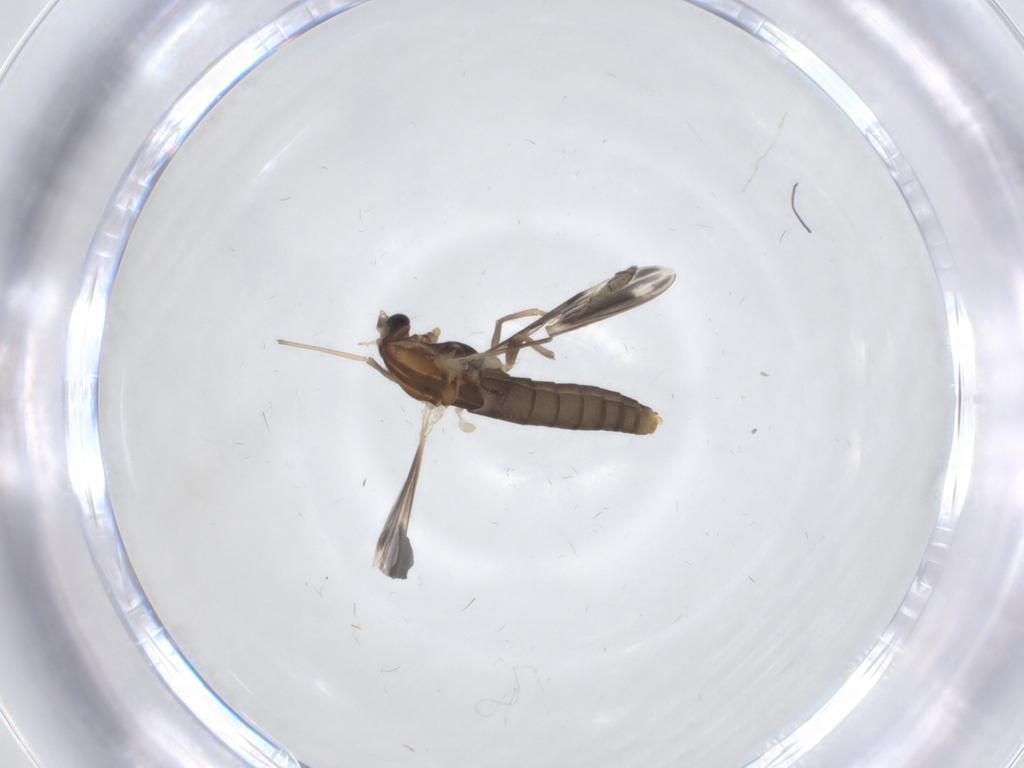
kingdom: Animalia
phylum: Arthropoda
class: Insecta
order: Diptera
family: Chironomidae
